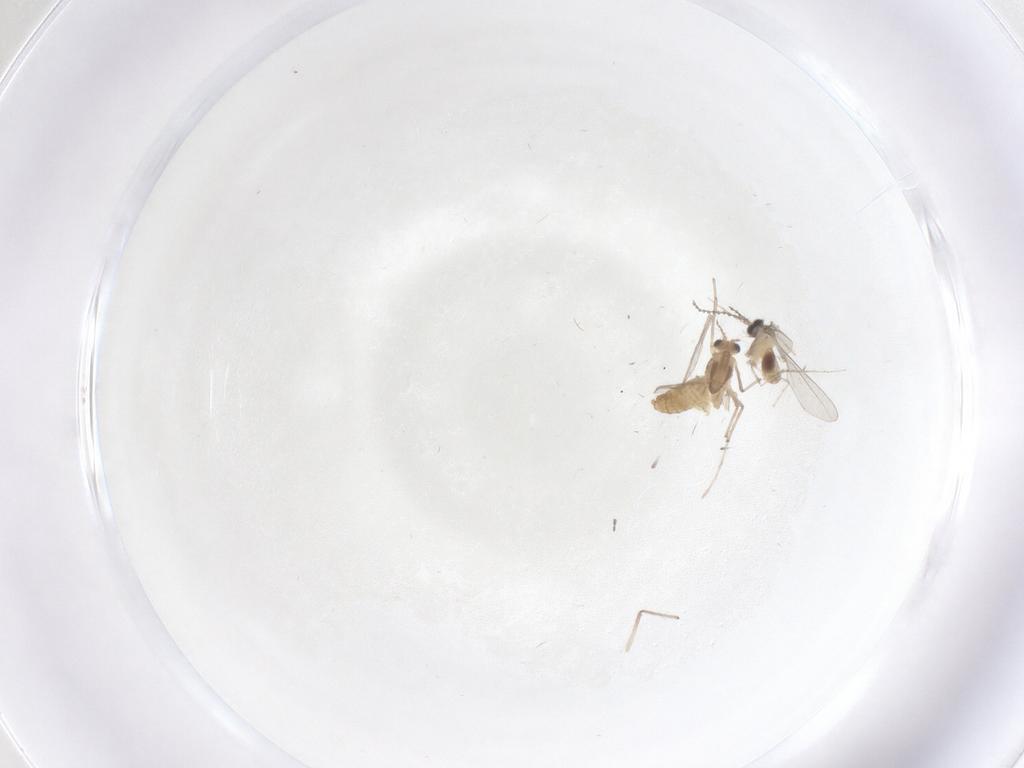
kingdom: Animalia
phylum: Arthropoda
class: Insecta
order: Diptera
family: Chironomidae
